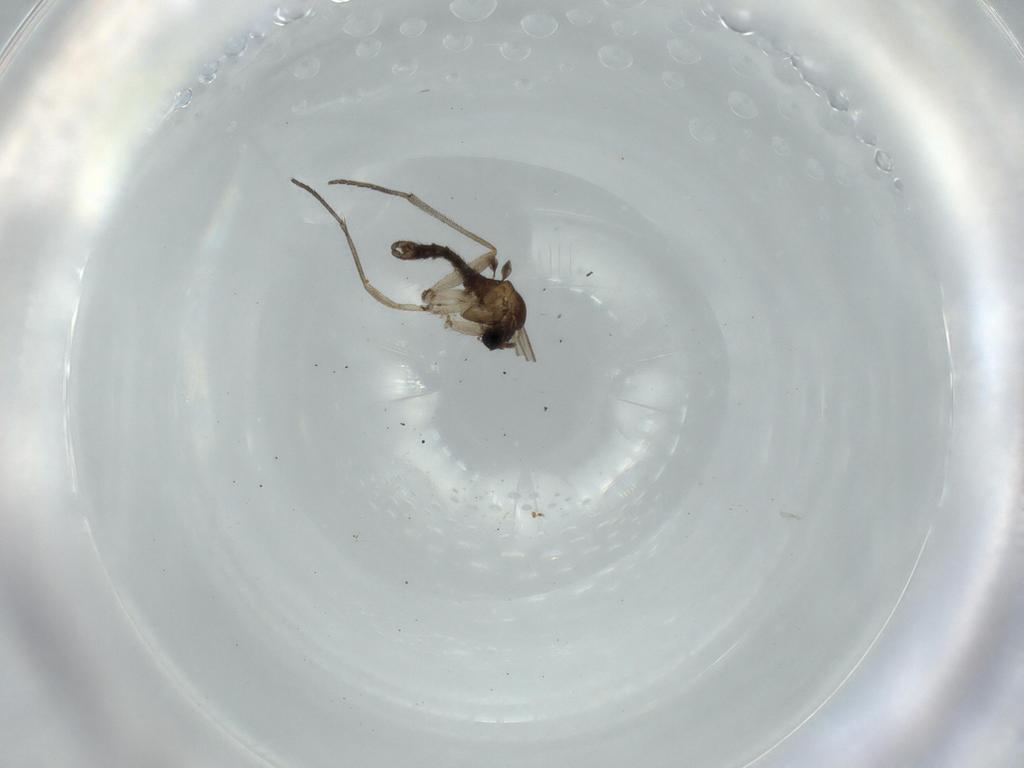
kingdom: Animalia
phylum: Arthropoda
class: Insecta
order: Diptera
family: Sciaridae
